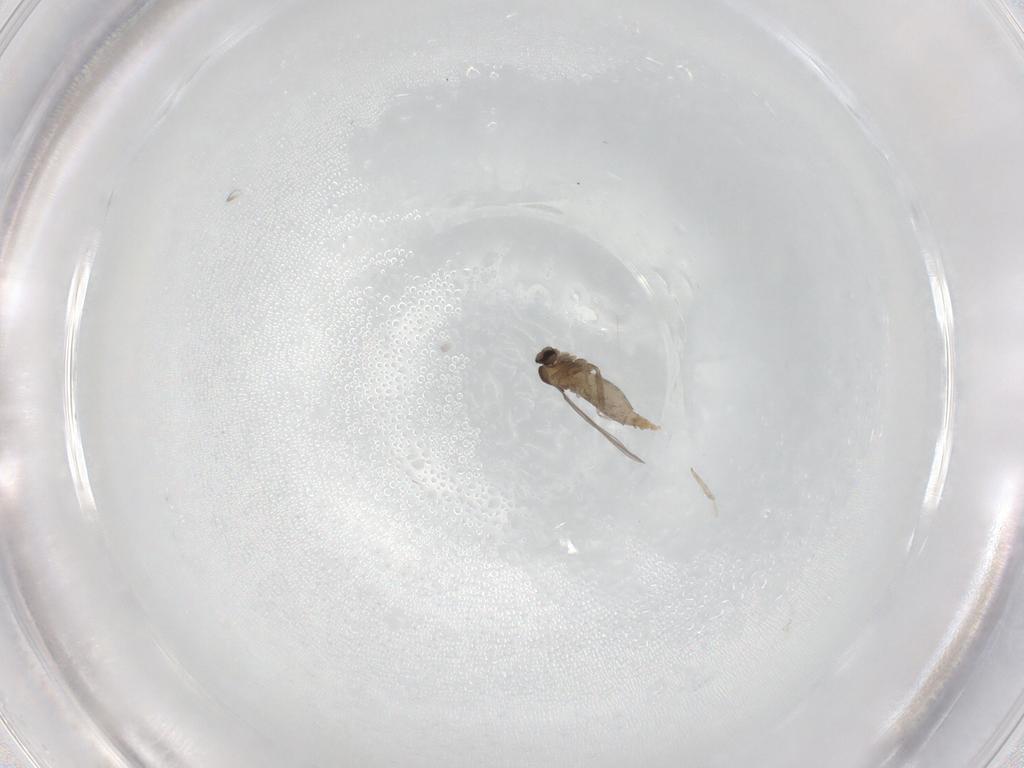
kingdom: Animalia
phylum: Arthropoda
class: Insecta
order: Diptera
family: Cecidomyiidae
